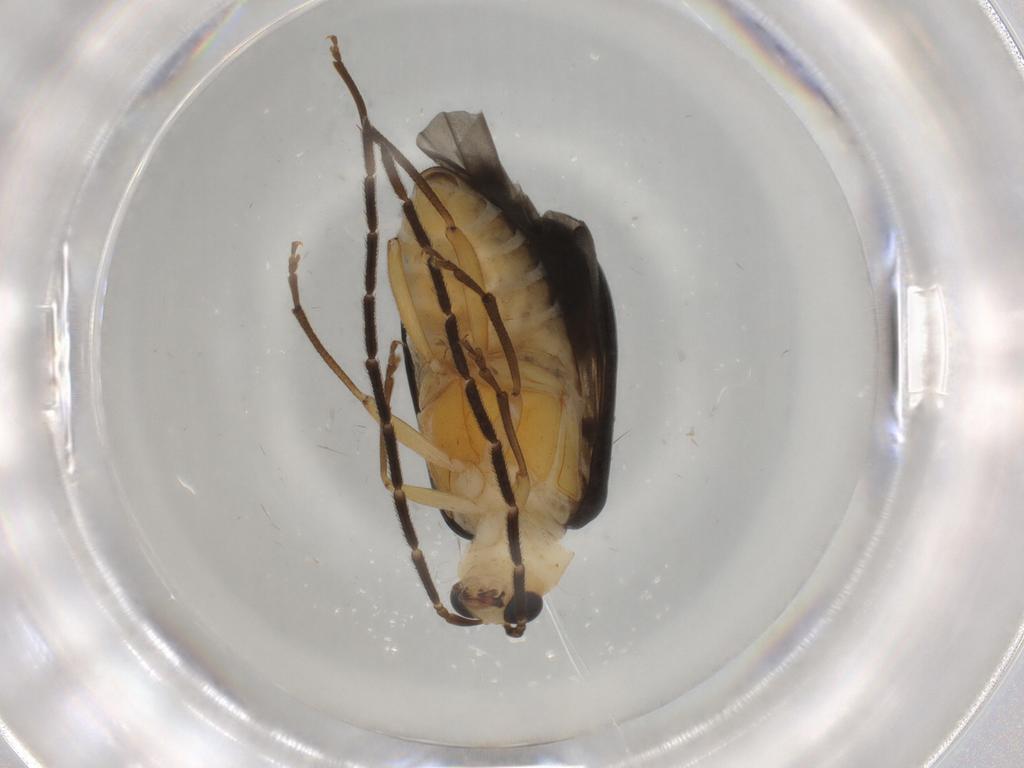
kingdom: Animalia
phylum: Arthropoda
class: Insecta
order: Coleoptera
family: Chrysomelidae
